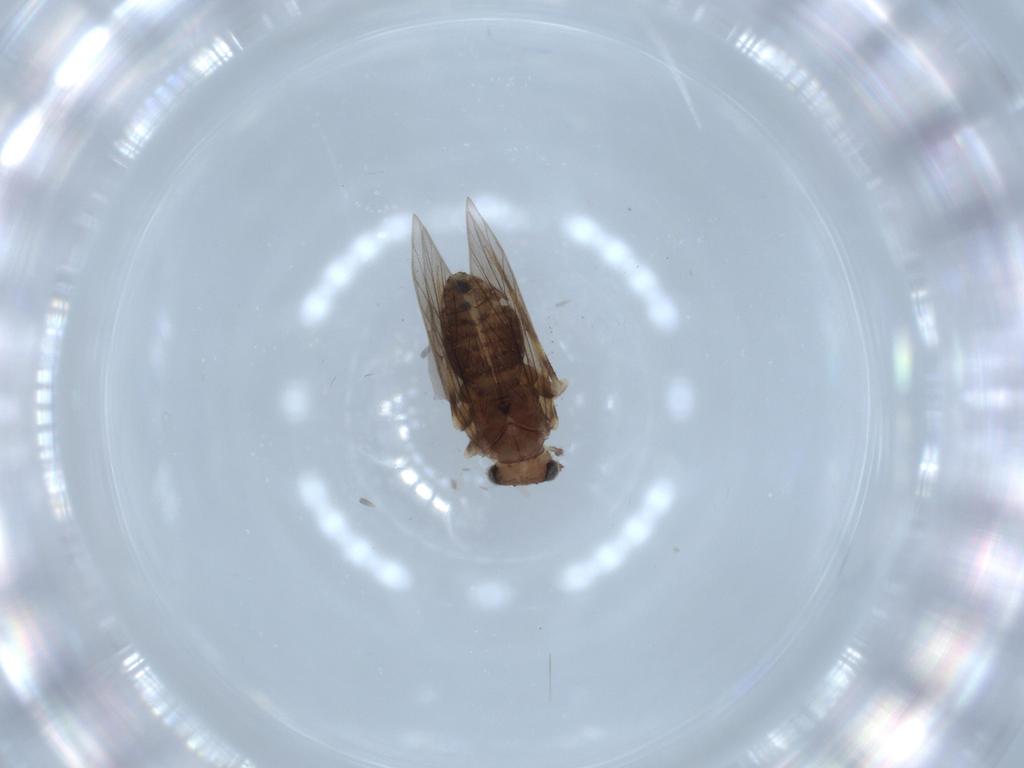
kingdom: Animalia
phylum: Arthropoda
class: Insecta
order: Psocodea
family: Lepidopsocidae
